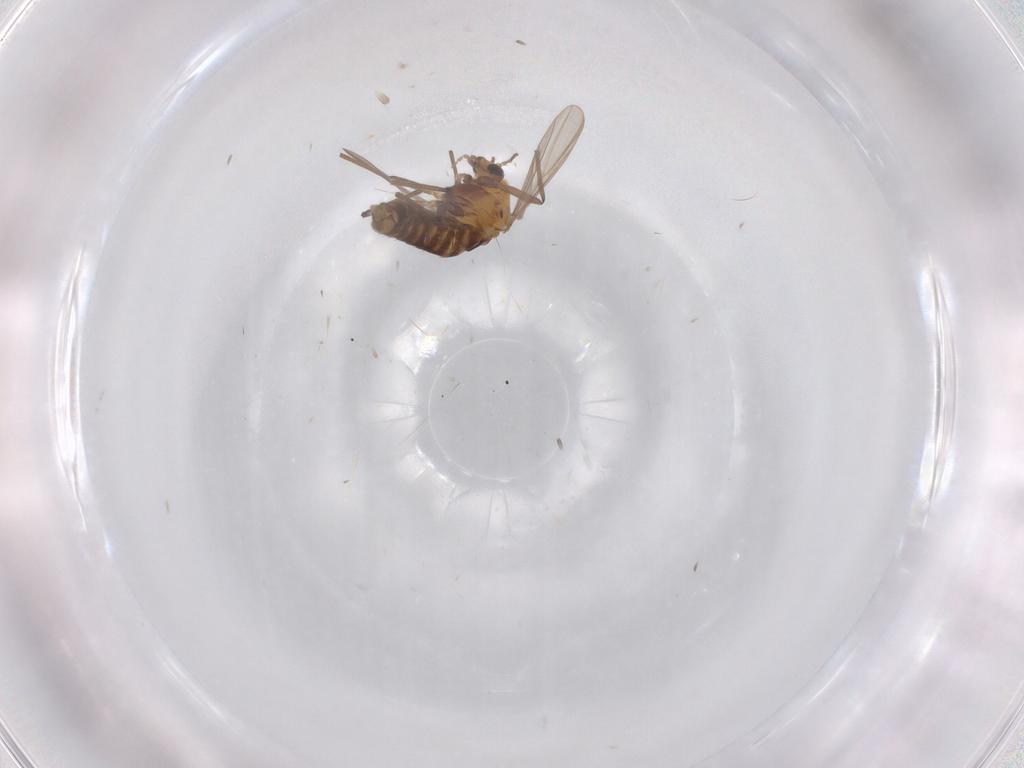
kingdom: Animalia
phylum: Arthropoda
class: Insecta
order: Diptera
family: Chironomidae
